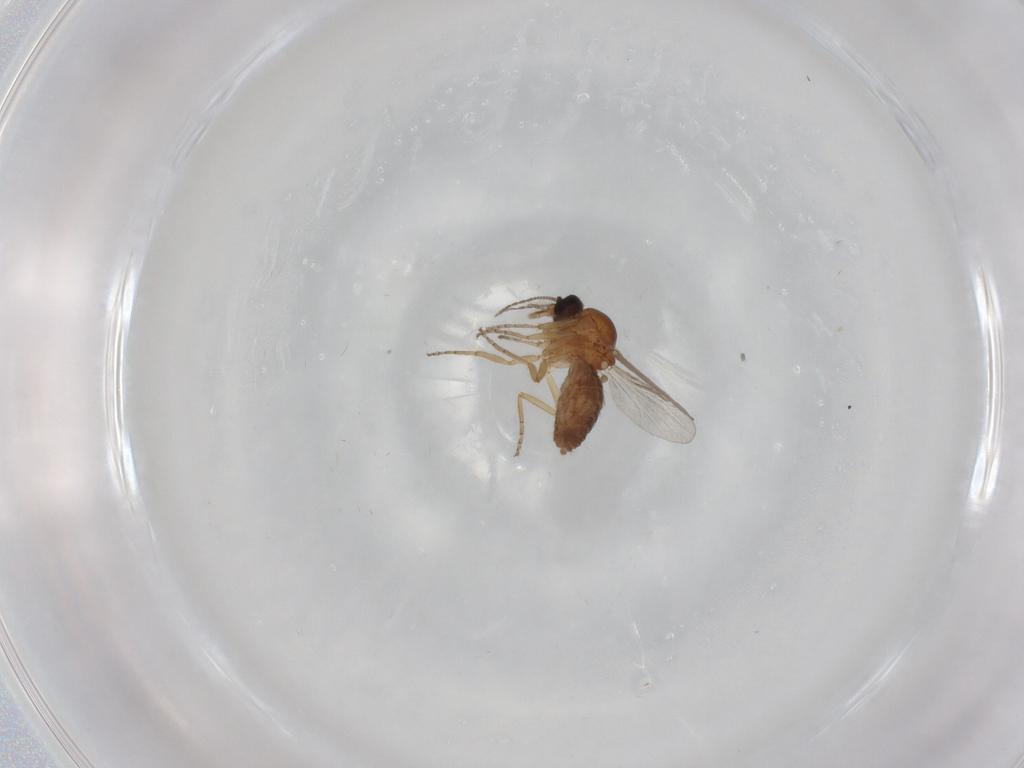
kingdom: Animalia
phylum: Arthropoda
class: Insecta
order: Diptera
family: Ceratopogonidae
